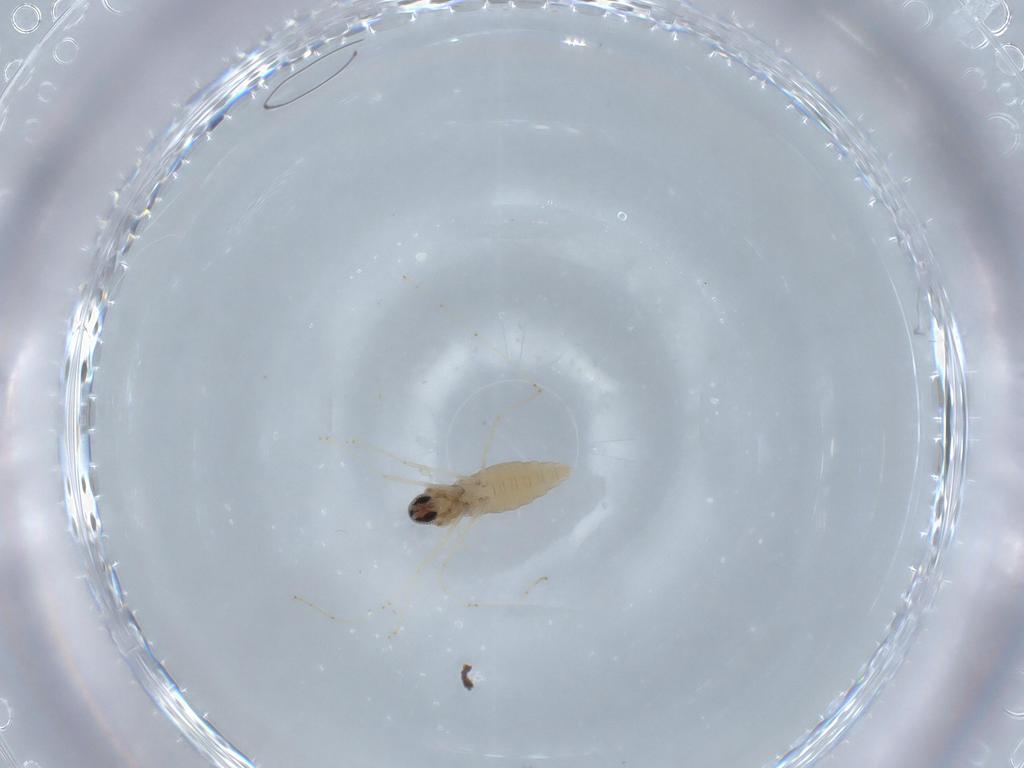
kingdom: Animalia
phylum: Arthropoda
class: Insecta
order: Diptera
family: Cecidomyiidae
